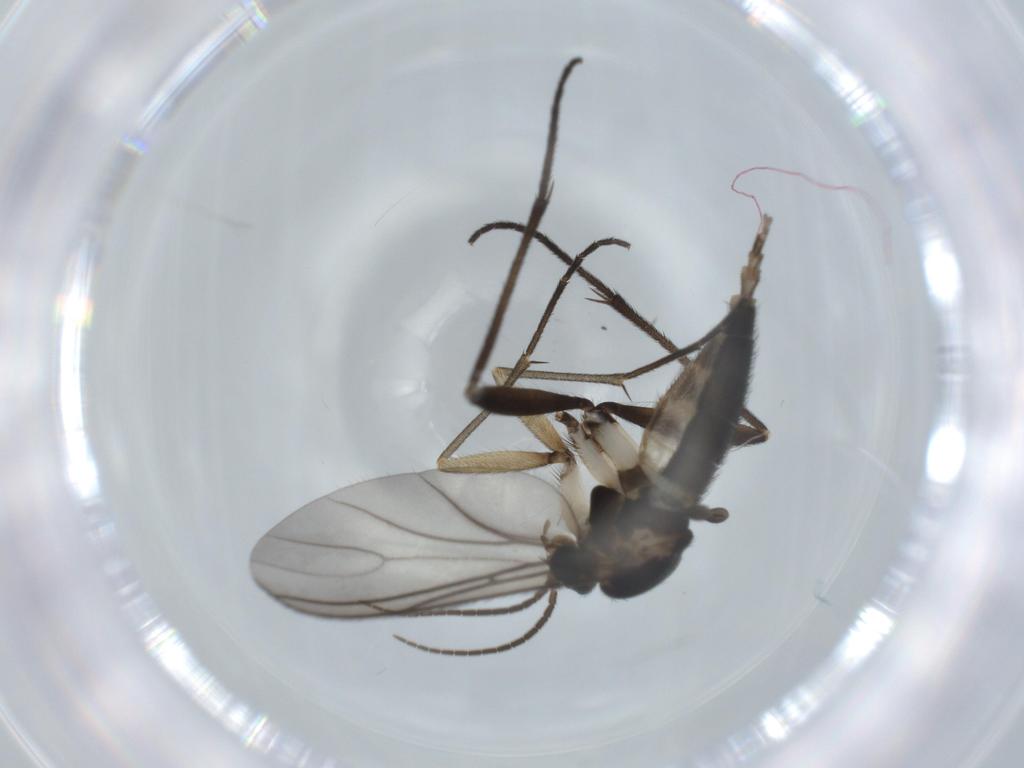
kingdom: Animalia
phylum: Arthropoda
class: Insecta
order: Diptera
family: Sciaridae
